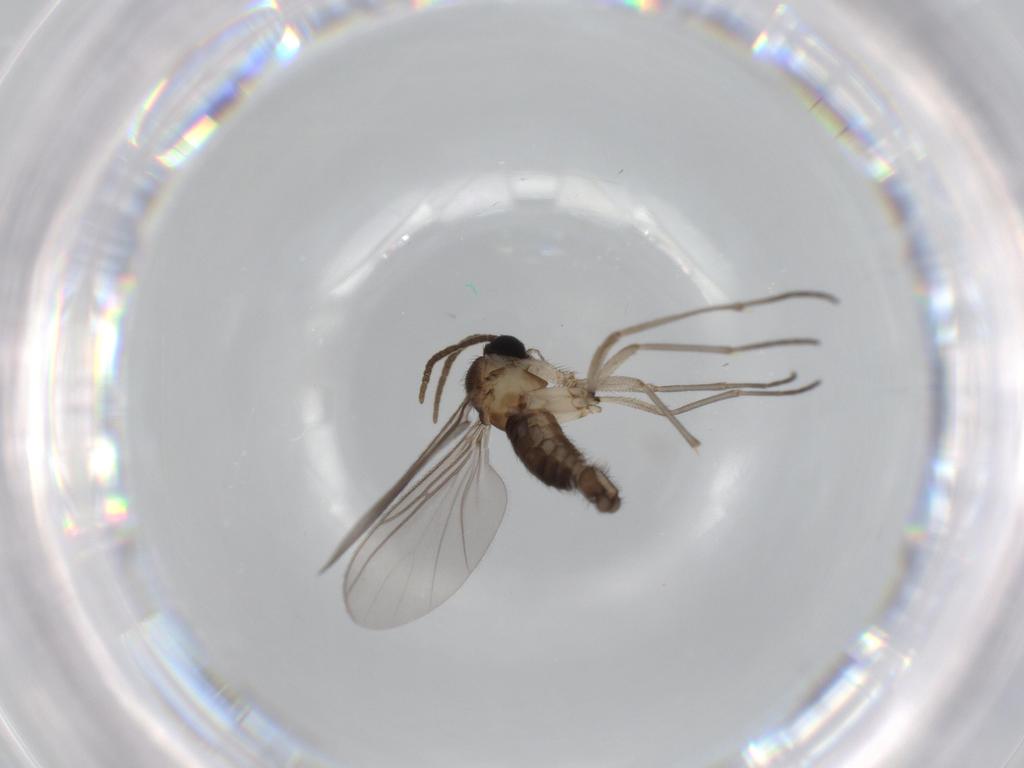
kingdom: Animalia
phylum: Arthropoda
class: Insecta
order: Diptera
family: Sciaridae
